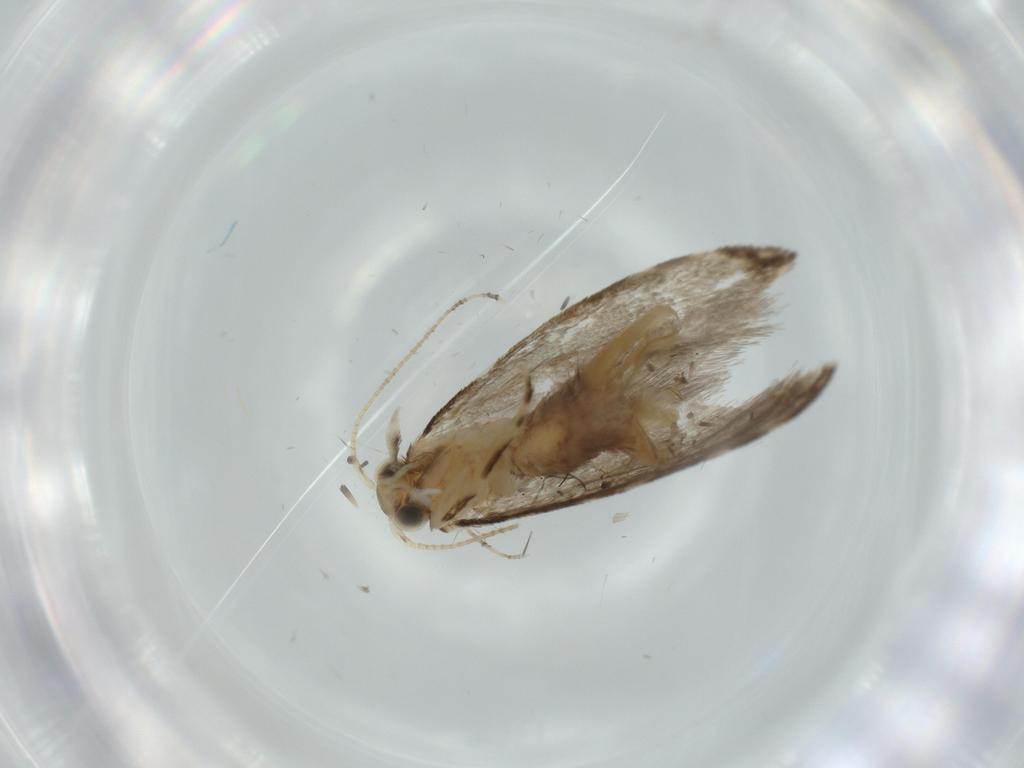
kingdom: Animalia
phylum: Arthropoda
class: Insecta
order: Lepidoptera
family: Tineidae
